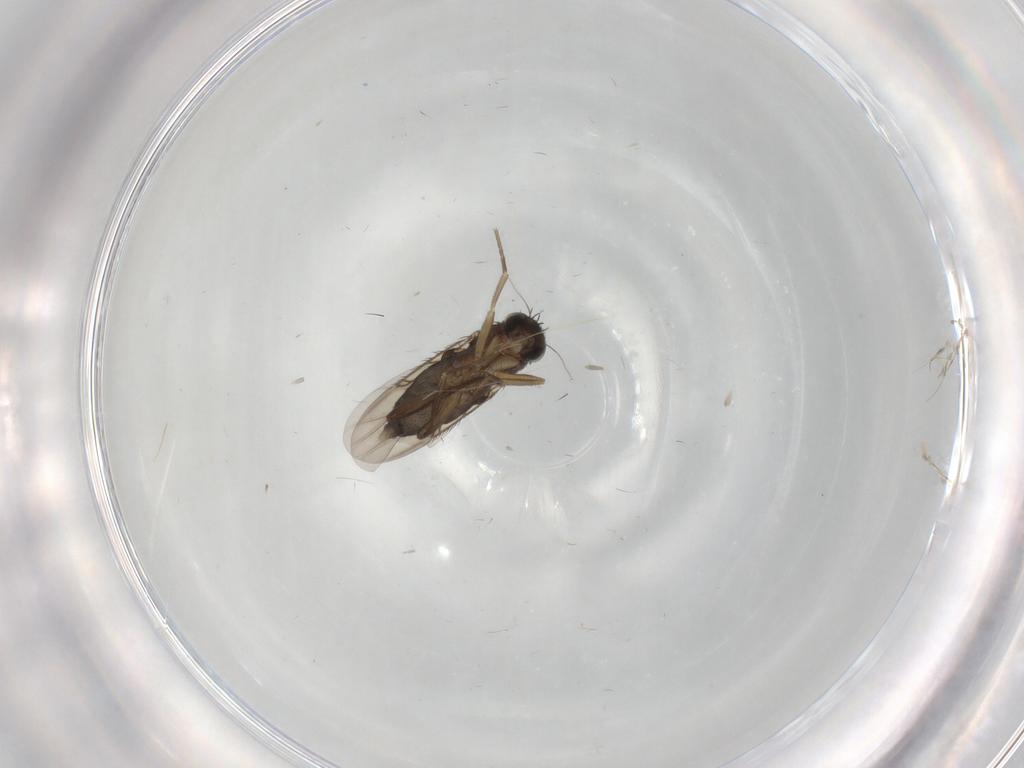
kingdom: Animalia
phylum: Arthropoda
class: Insecta
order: Diptera
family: Phoridae
